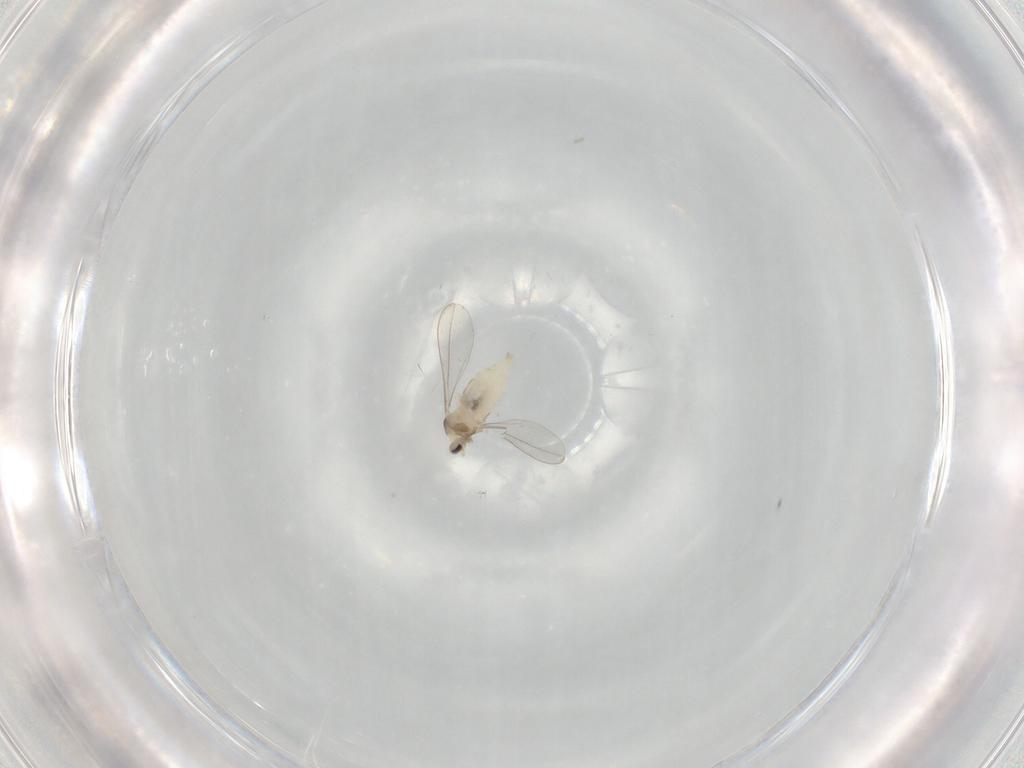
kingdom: Animalia
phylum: Arthropoda
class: Insecta
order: Diptera
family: Cecidomyiidae
